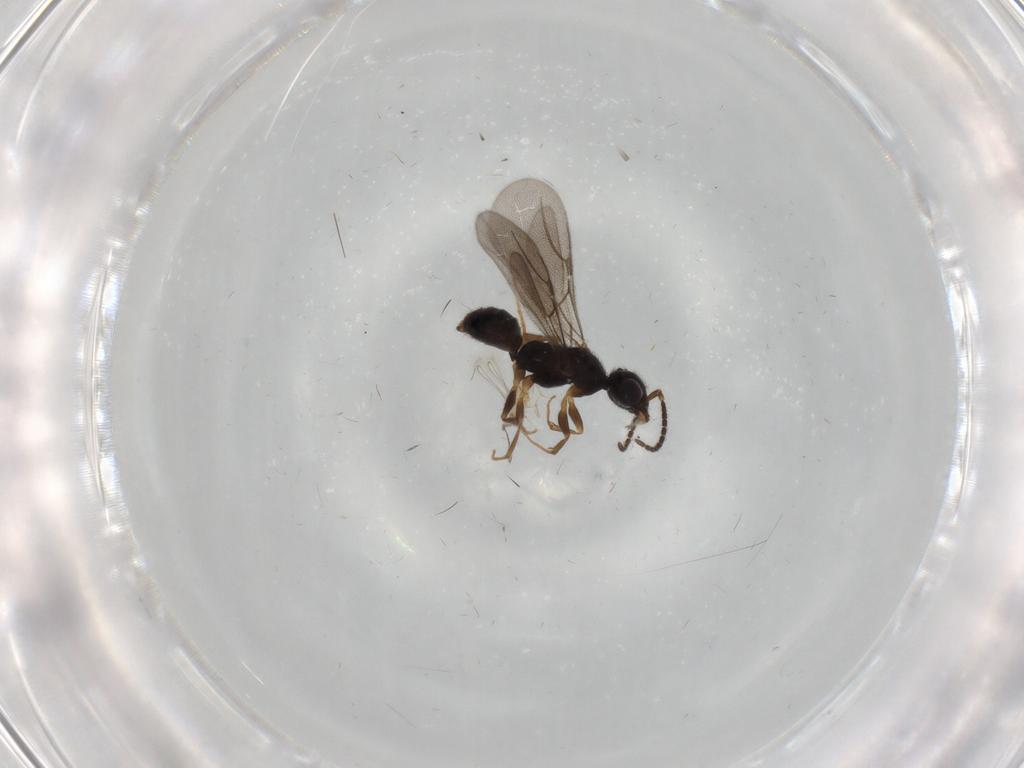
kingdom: Animalia
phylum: Arthropoda
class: Insecta
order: Hymenoptera
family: Bethylidae
